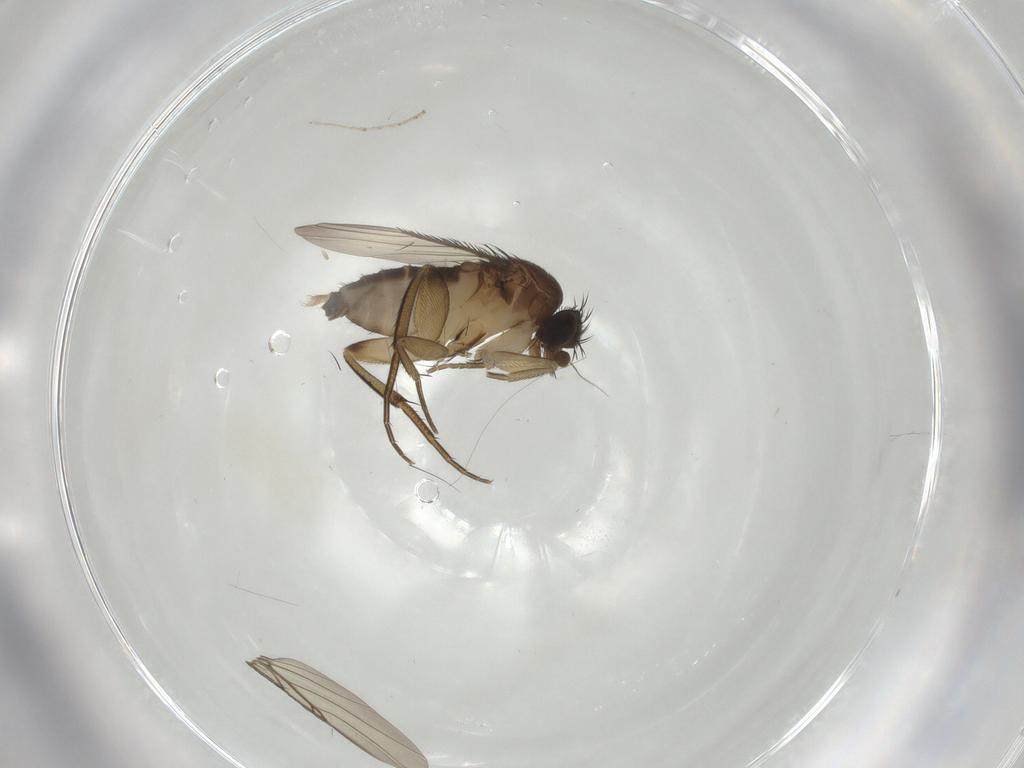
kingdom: Animalia
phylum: Arthropoda
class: Insecta
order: Diptera
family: Phoridae
